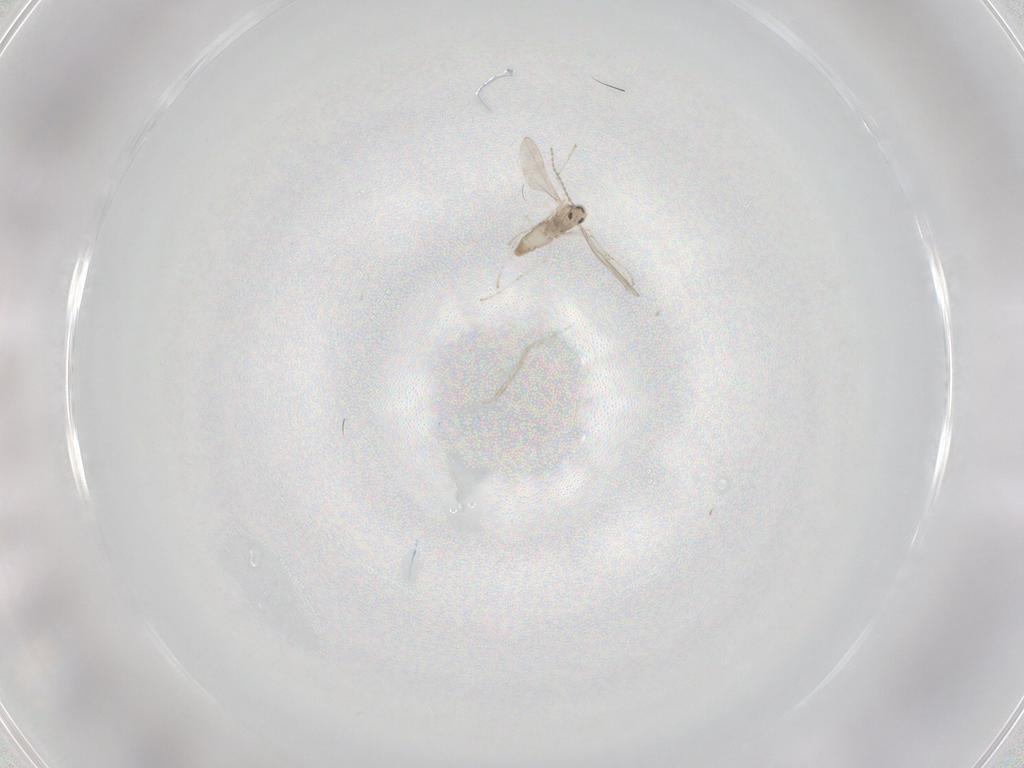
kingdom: Animalia
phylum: Arthropoda
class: Insecta
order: Diptera
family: Cecidomyiidae
